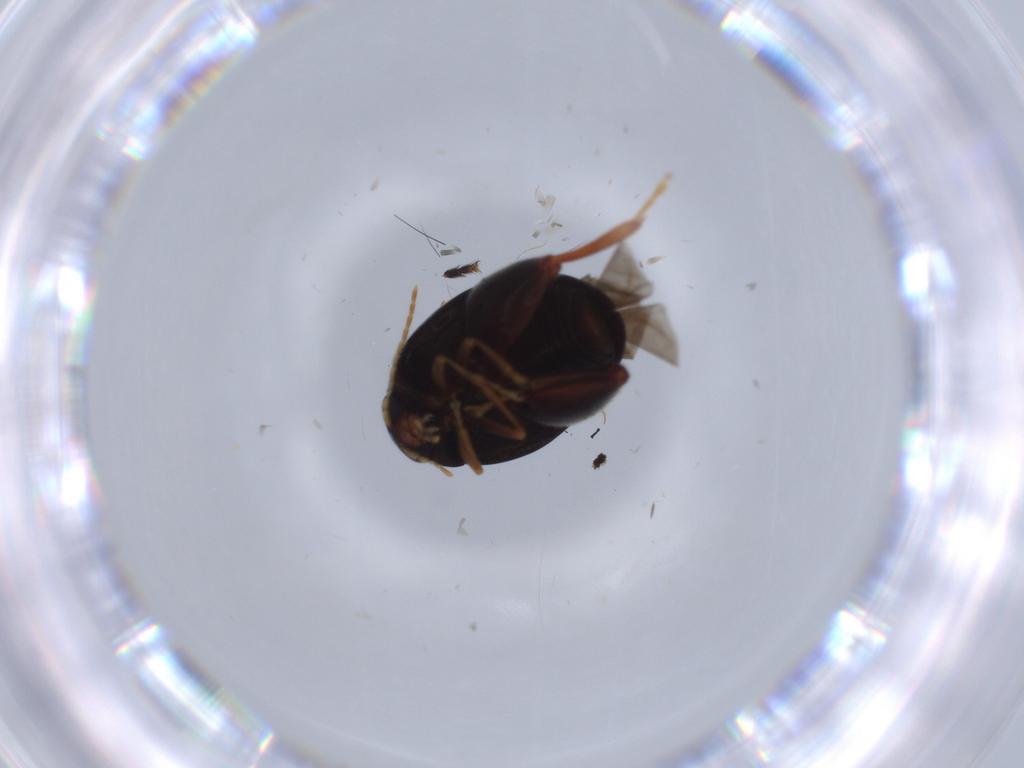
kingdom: Animalia
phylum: Arthropoda
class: Insecta
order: Coleoptera
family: Chrysomelidae
